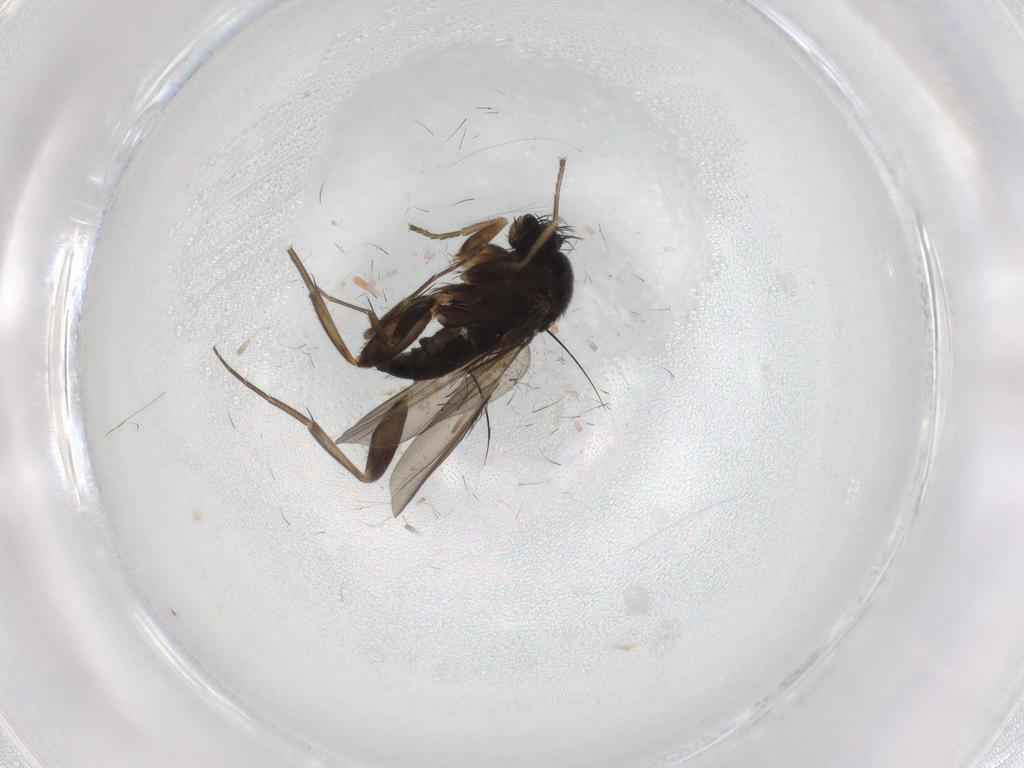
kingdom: Animalia
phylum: Arthropoda
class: Insecta
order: Diptera
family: Phoridae
